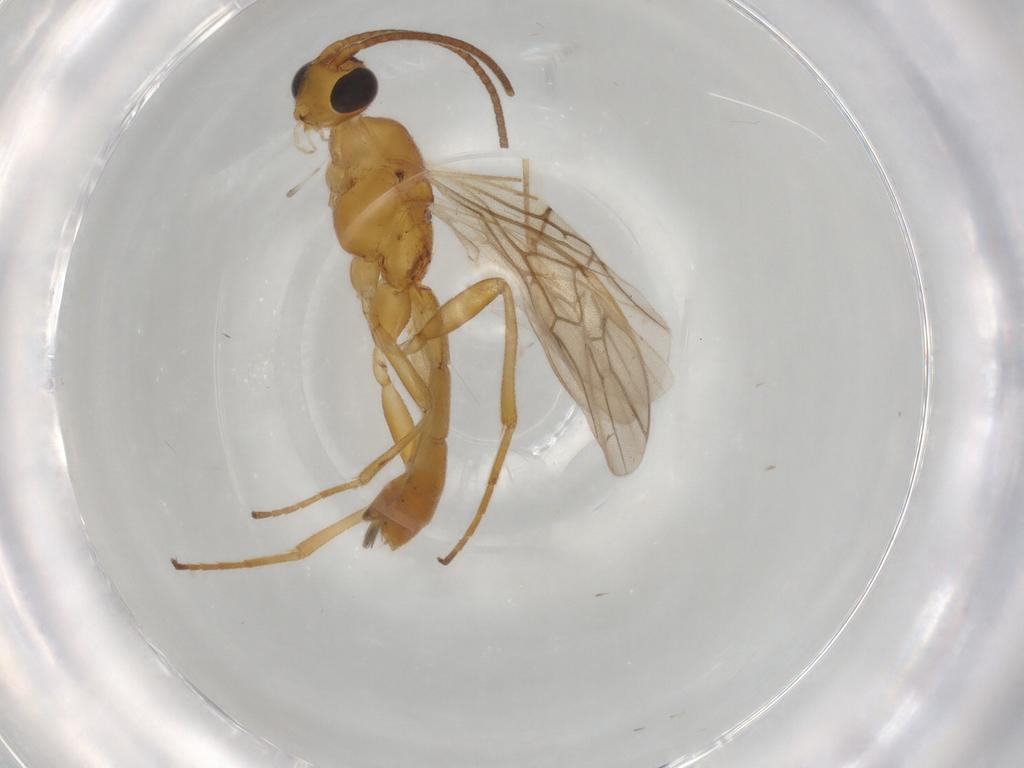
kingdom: Animalia
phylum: Arthropoda
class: Insecta
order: Hymenoptera
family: Braconidae
